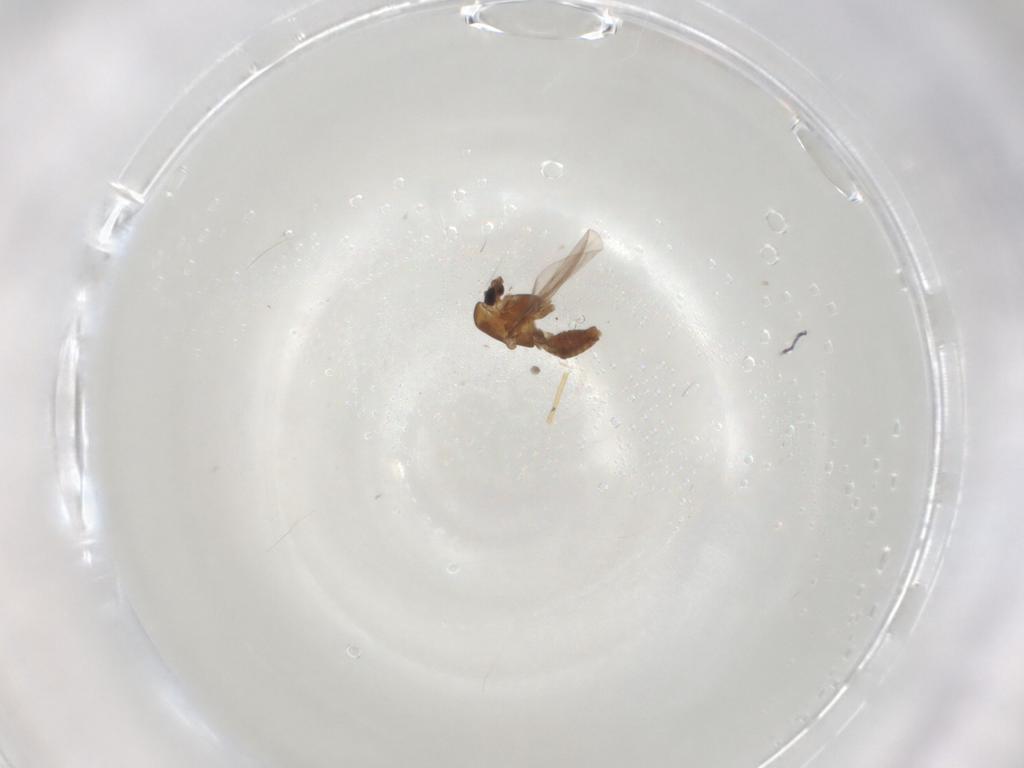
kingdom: Animalia
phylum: Arthropoda
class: Insecta
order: Diptera
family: Chironomidae
